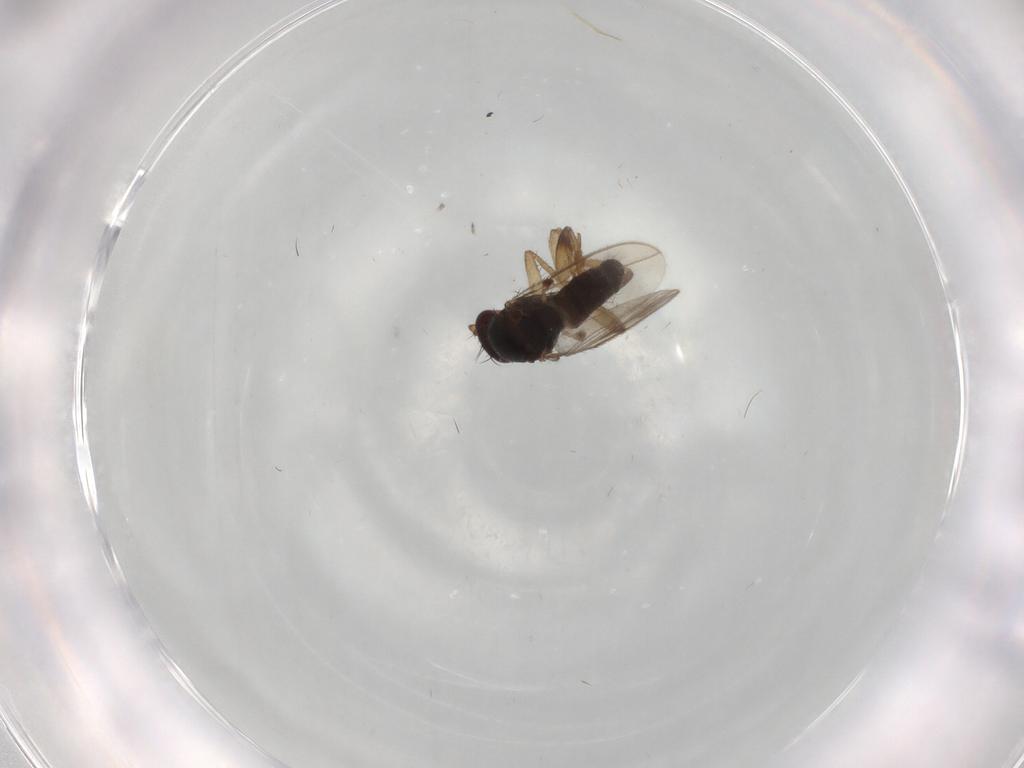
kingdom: Animalia
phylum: Arthropoda
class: Insecta
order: Diptera
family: Sphaeroceridae
